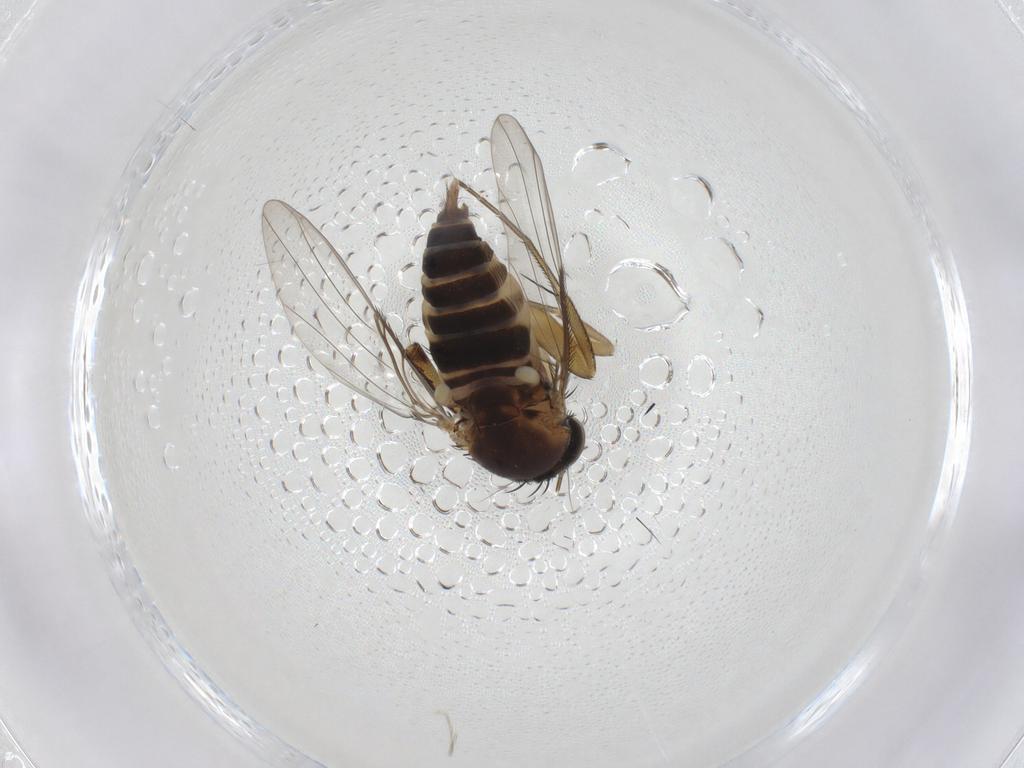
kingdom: Animalia
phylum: Arthropoda
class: Insecta
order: Diptera
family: Phoridae
